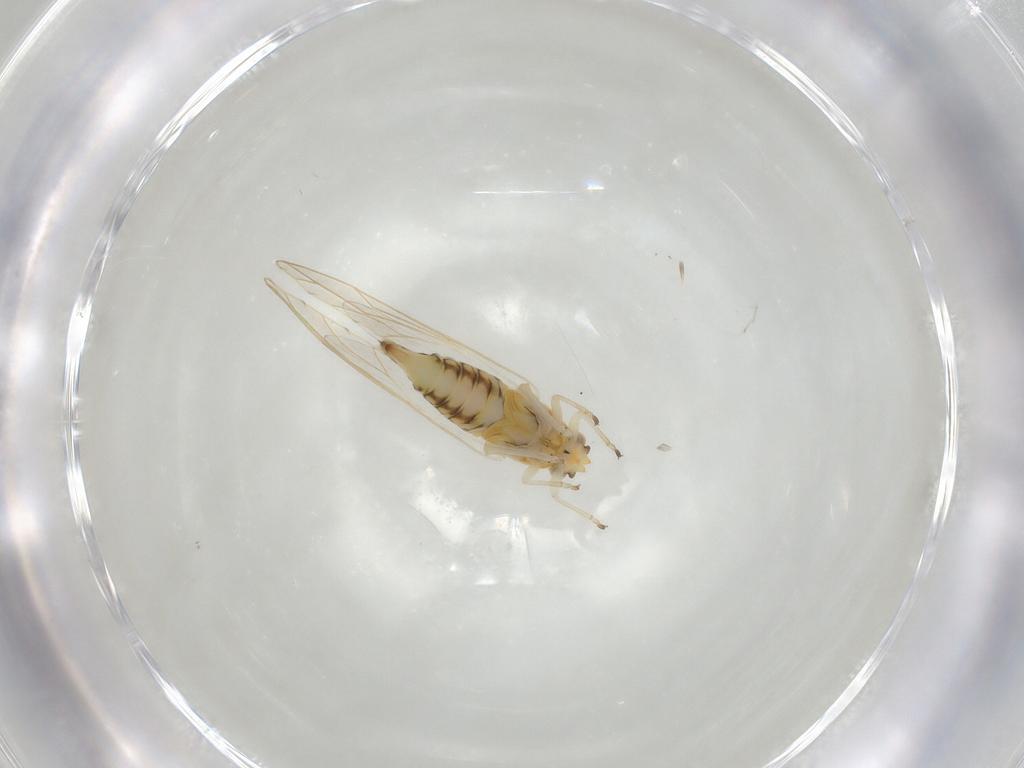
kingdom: Animalia
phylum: Arthropoda
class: Insecta
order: Hemiptera
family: Triozidae
